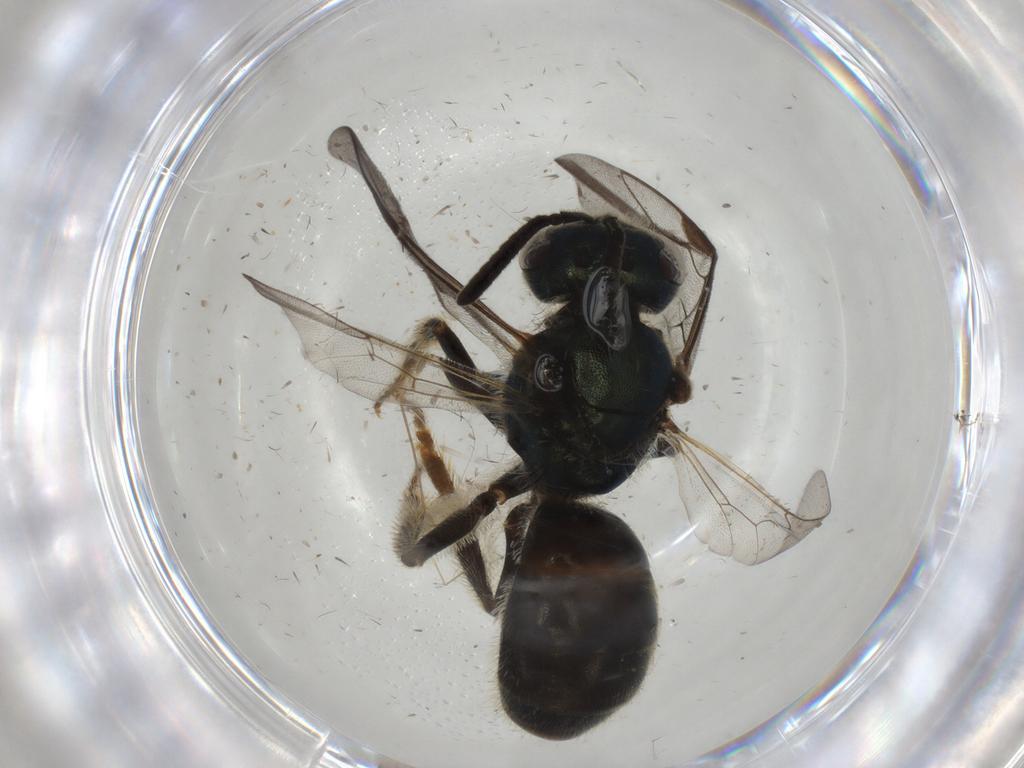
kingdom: Animalia
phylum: Arthropoda
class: Insecta
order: Hymenoptera
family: Halictidae
